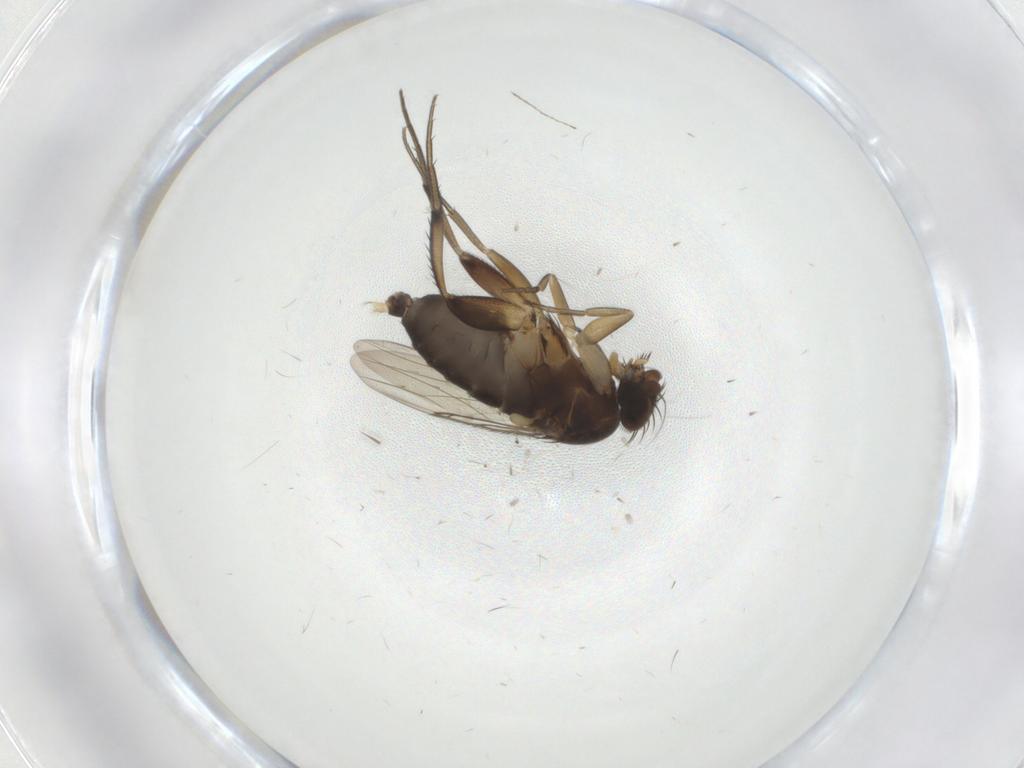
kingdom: Animalia
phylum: Arthropoda
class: Insecta
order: Diptera
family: Phoridae
